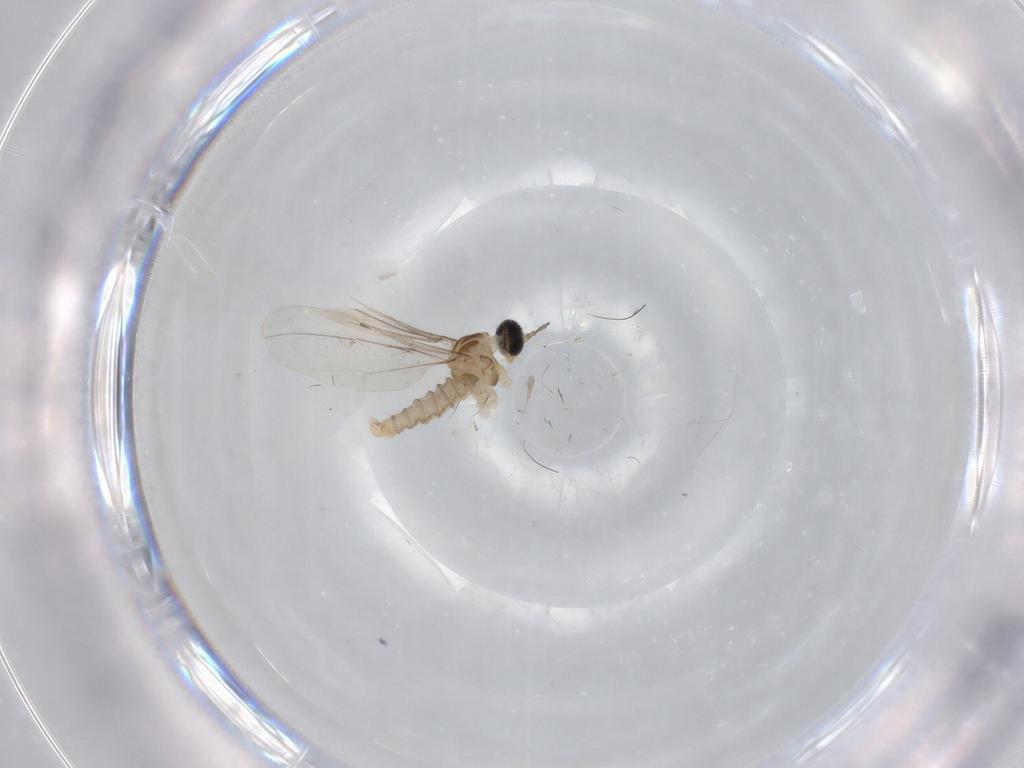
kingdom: Animalia
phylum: Arthropoda
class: Insecta
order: Diptera
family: Cecidomyiidae
